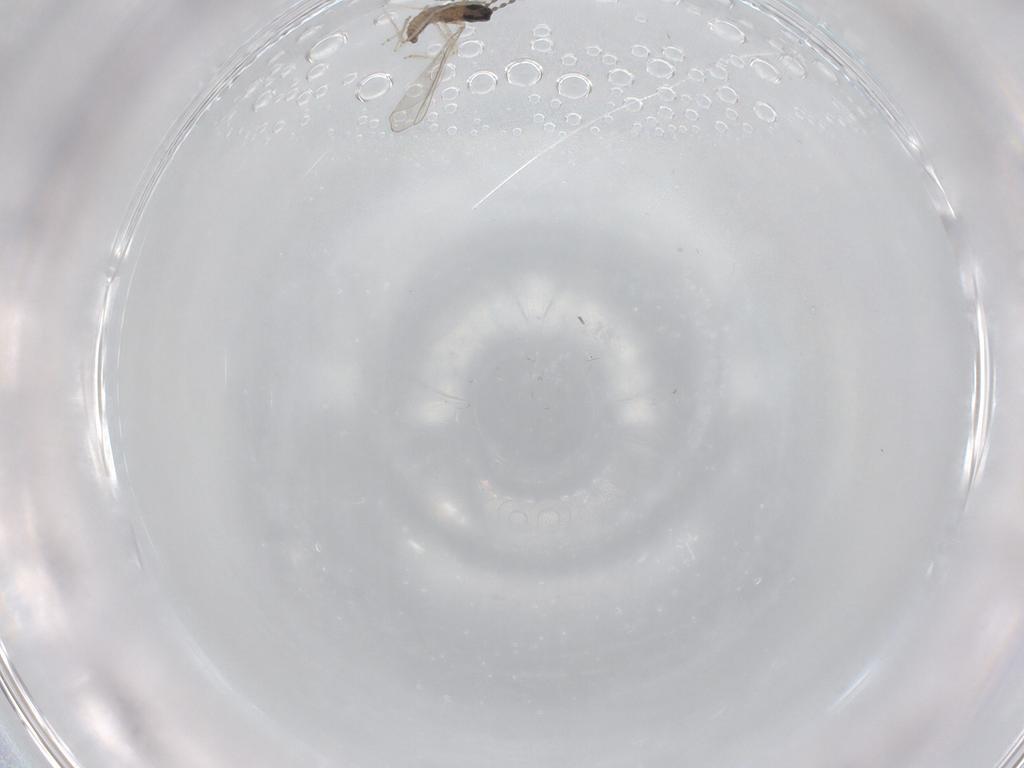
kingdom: Animalia
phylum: Arthropoda
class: Insecta
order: Diptera
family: Cecidomyiidae
